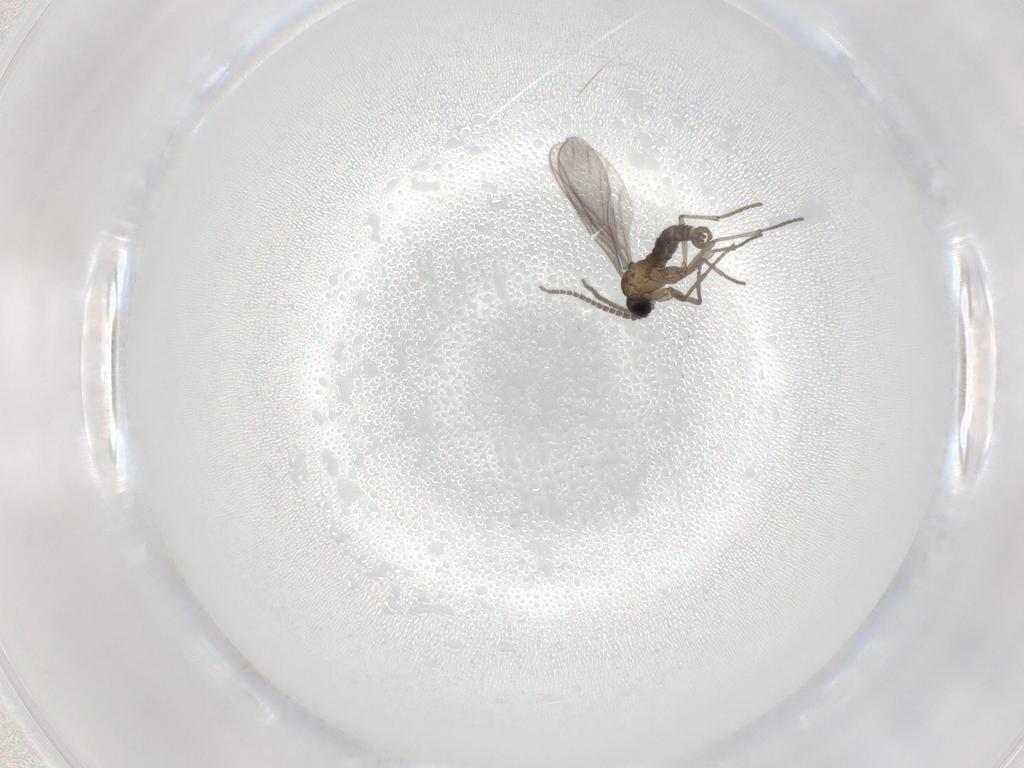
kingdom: Animalia
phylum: Arthropoda
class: Insecta
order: Diptera
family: Sciaridae
